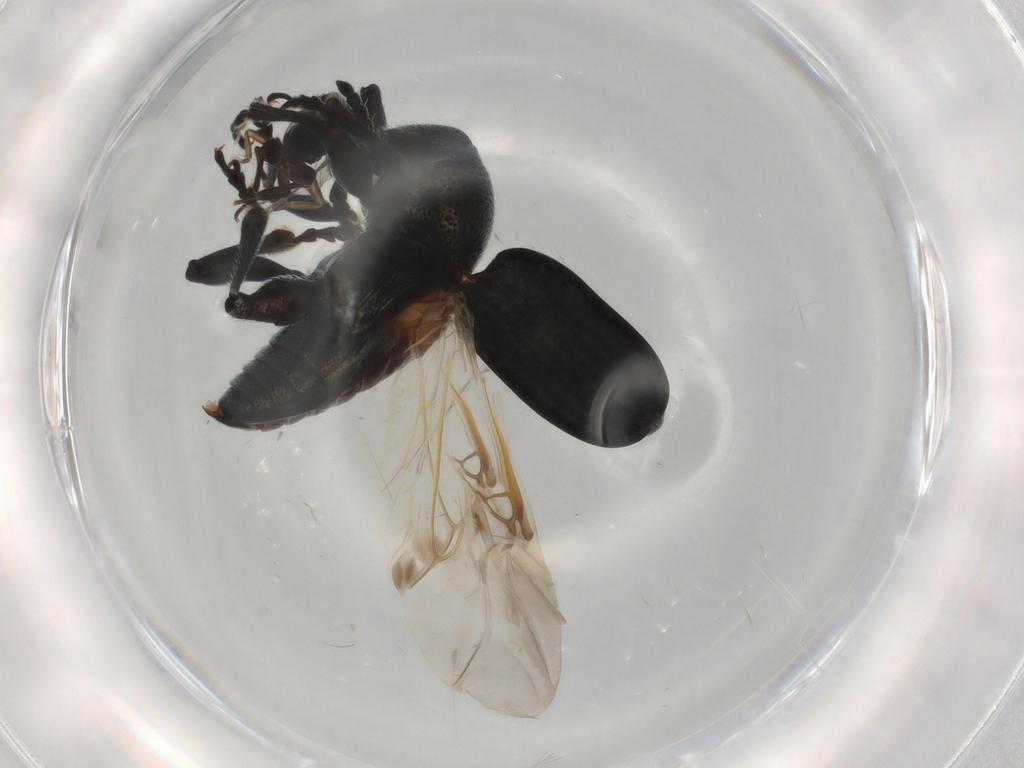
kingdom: Animalia
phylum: Arthropoda
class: Insecta
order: Coleoptera
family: Chrysomelidae
